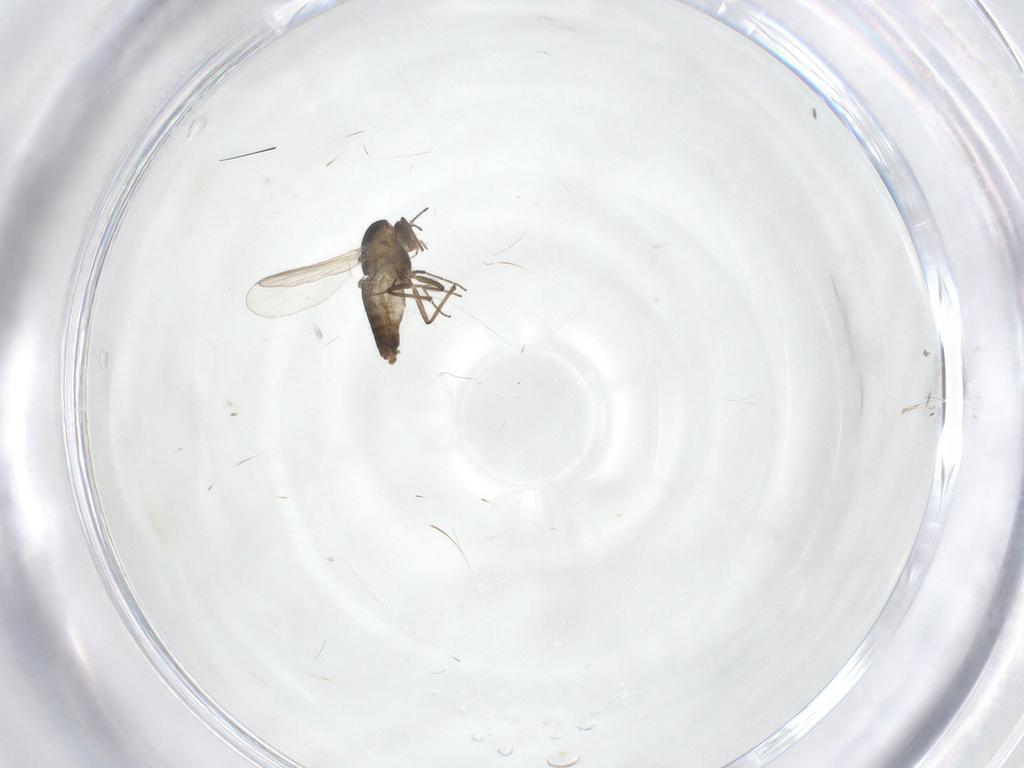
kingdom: Animalia
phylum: Arthropoda
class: Insecta
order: Diptera
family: Chironomidae
